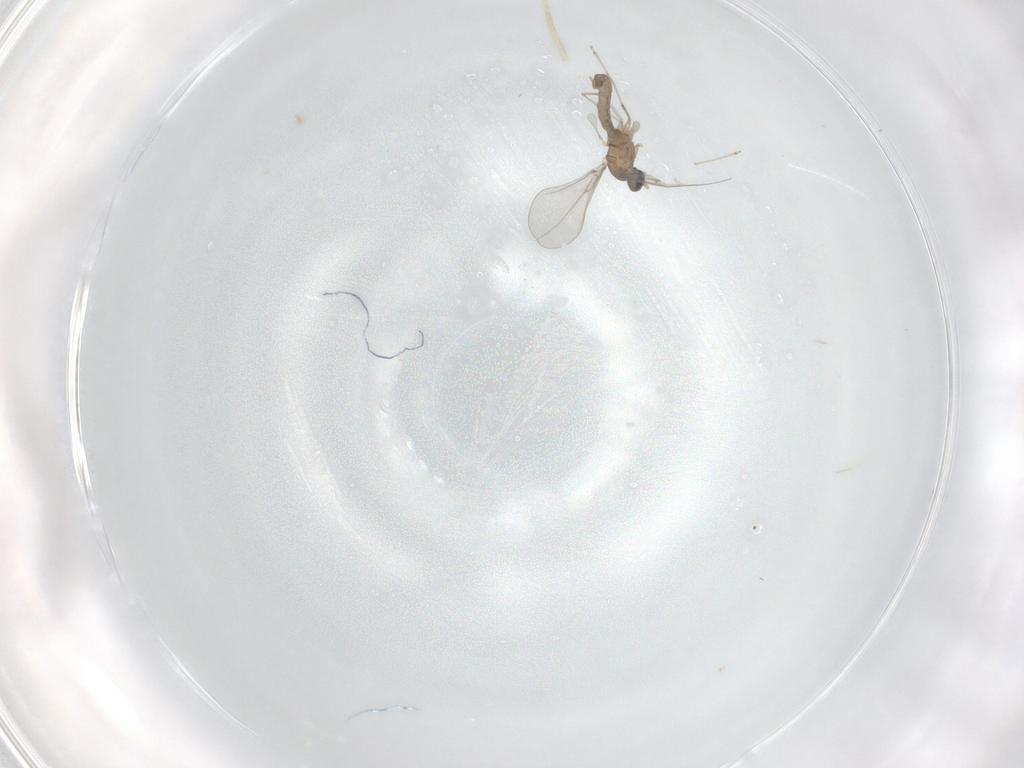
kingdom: Animalia
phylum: Arthropoda
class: Insecta
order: Diptera
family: Cecidomyiidae
